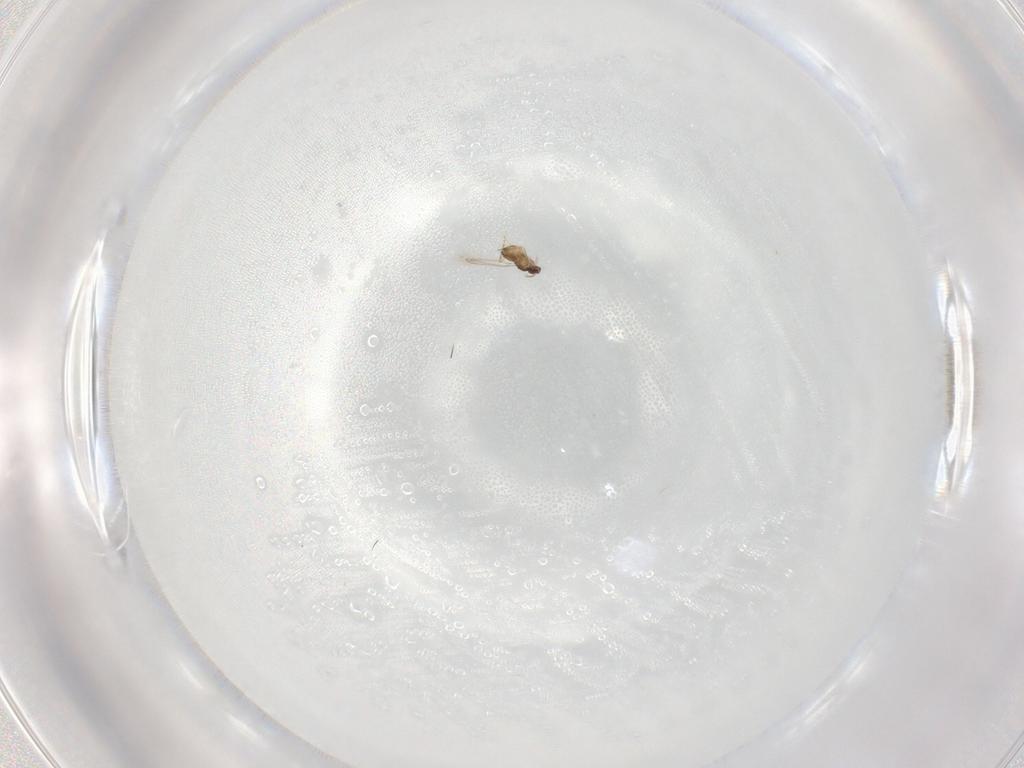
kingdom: Animalia
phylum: Arthropoda
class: Insecta
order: Hymenoptera
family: Mymaridae
